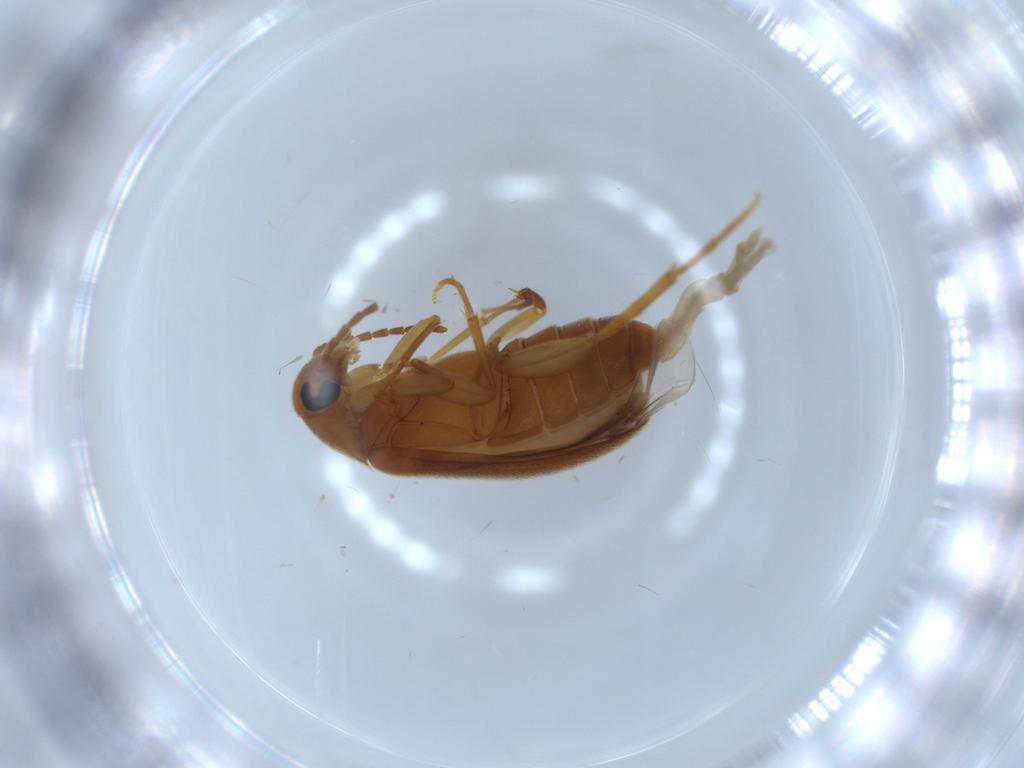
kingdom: Animalia
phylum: Arthropoda
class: Insecta
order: Coleoptera
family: Scraptiidae
